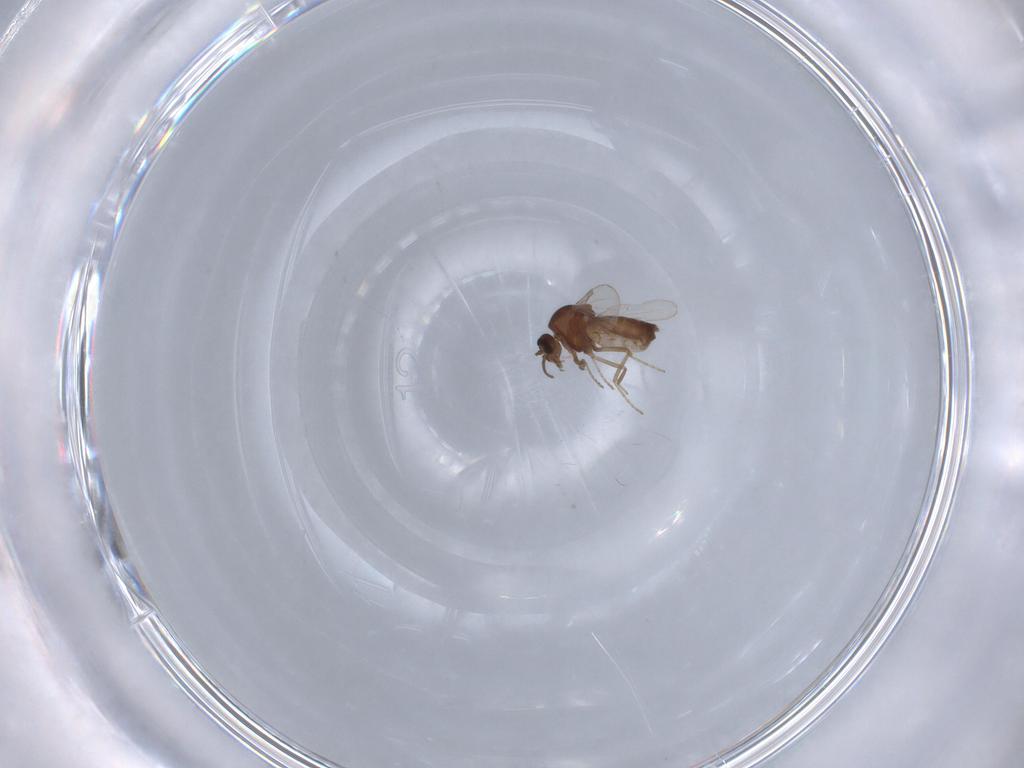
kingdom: Animalia
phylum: Arthropoda
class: Insecta
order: Diptera
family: Ceratopogonidae
